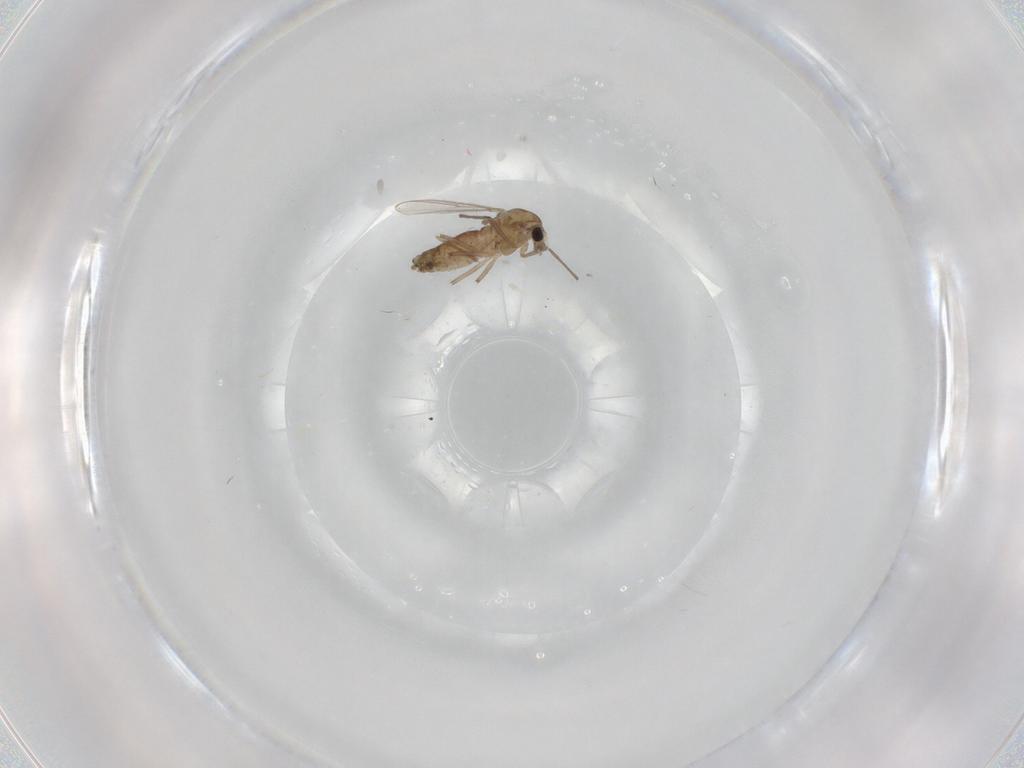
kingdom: Animalia
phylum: Arthropoda
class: Insecta
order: Diptera
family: Chironomidae
